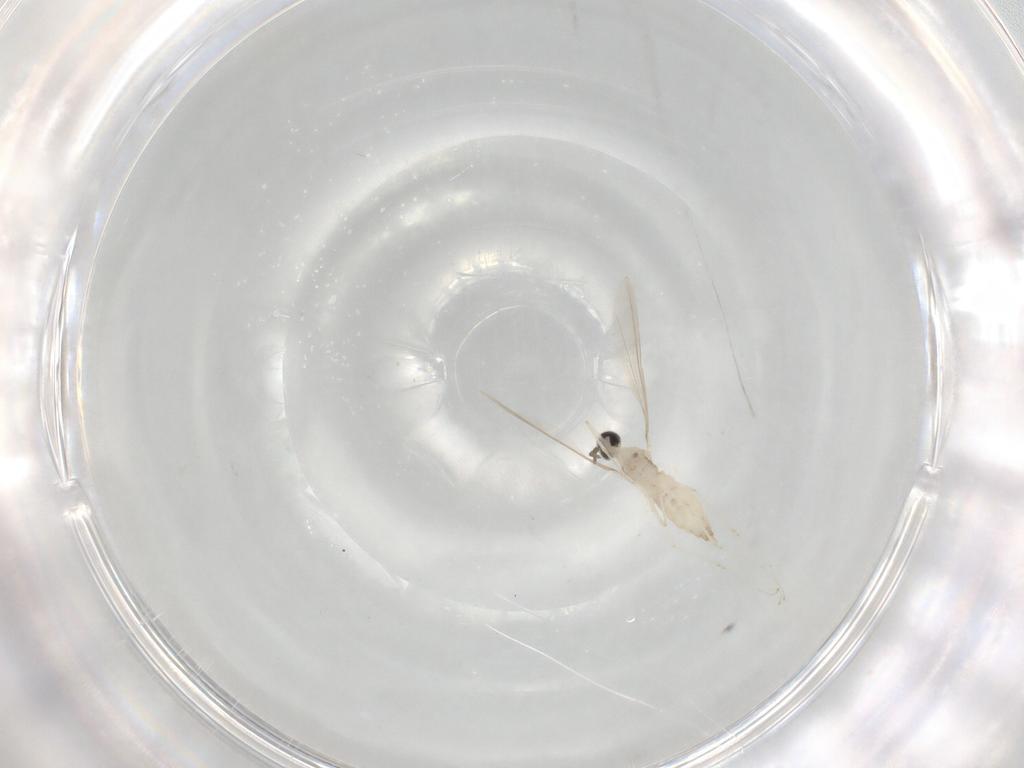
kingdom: Animalia
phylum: Arthropoda
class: Insecta
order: Diptera
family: Cecidomyiidae
